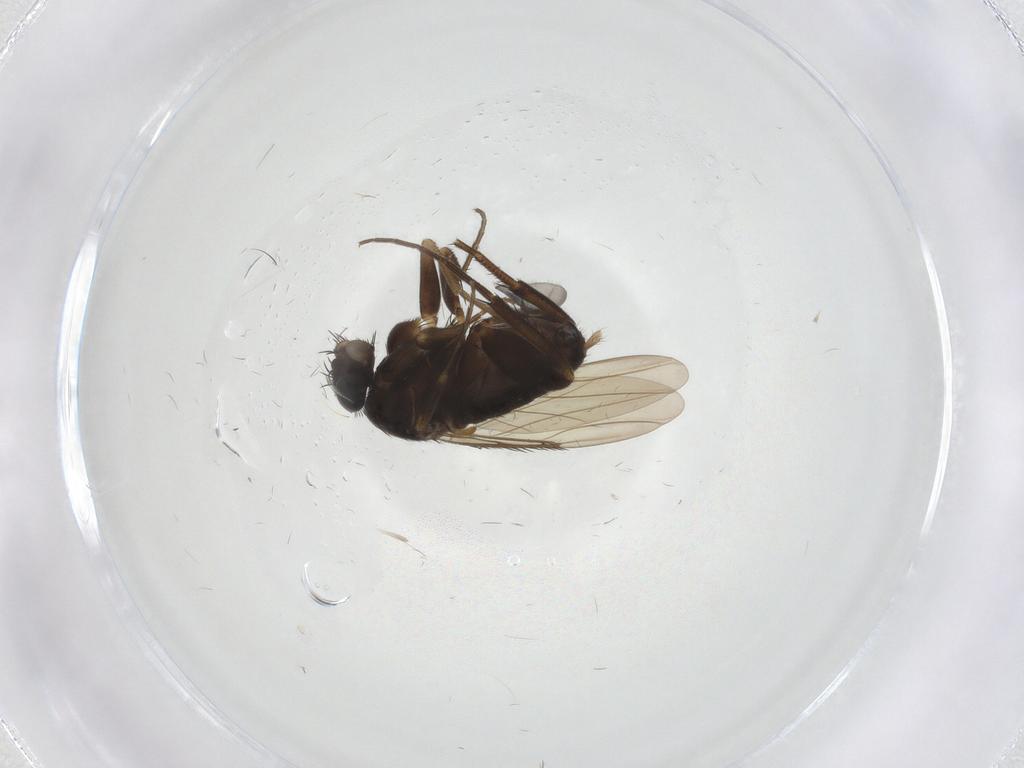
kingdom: Animalia
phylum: Arthropoda
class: Insecta
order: Diptera
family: Phoridae
